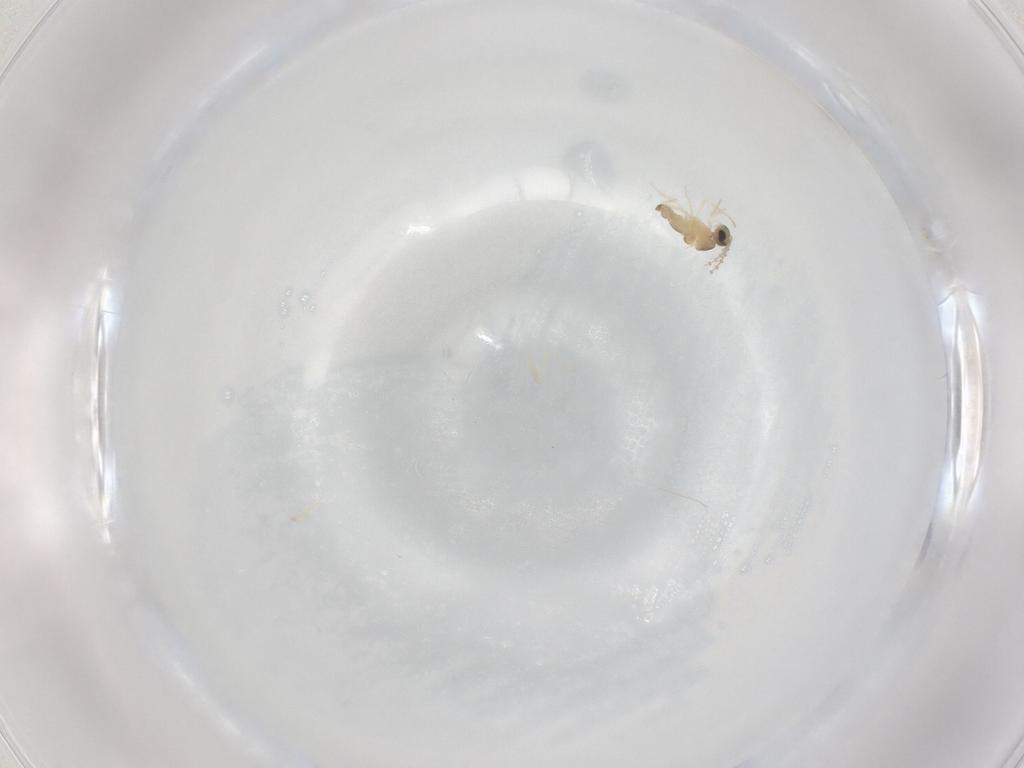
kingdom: Animalia
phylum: Arthropoda
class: Insecta
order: Diptera
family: Cecidomyiidae
